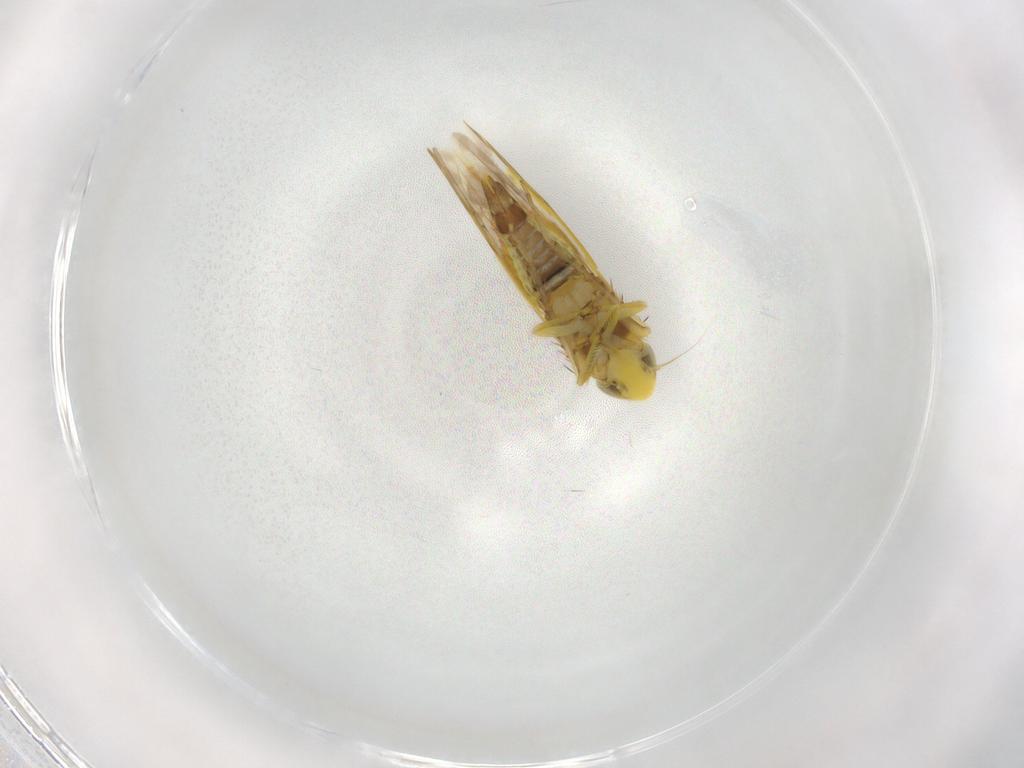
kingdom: Animalia
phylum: Arthropoda
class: Insecta
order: Hemiptera
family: Cicadellidae
